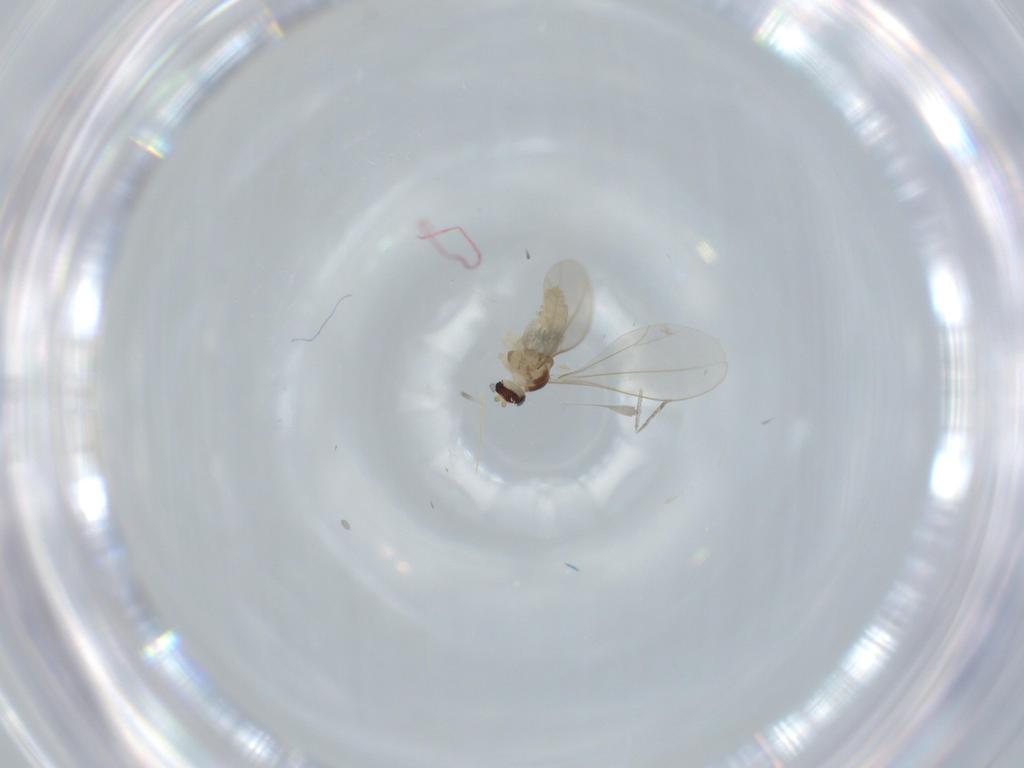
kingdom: Animalia
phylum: Arthropoda
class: Insecta
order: Diptera
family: Cecidomyiidae
